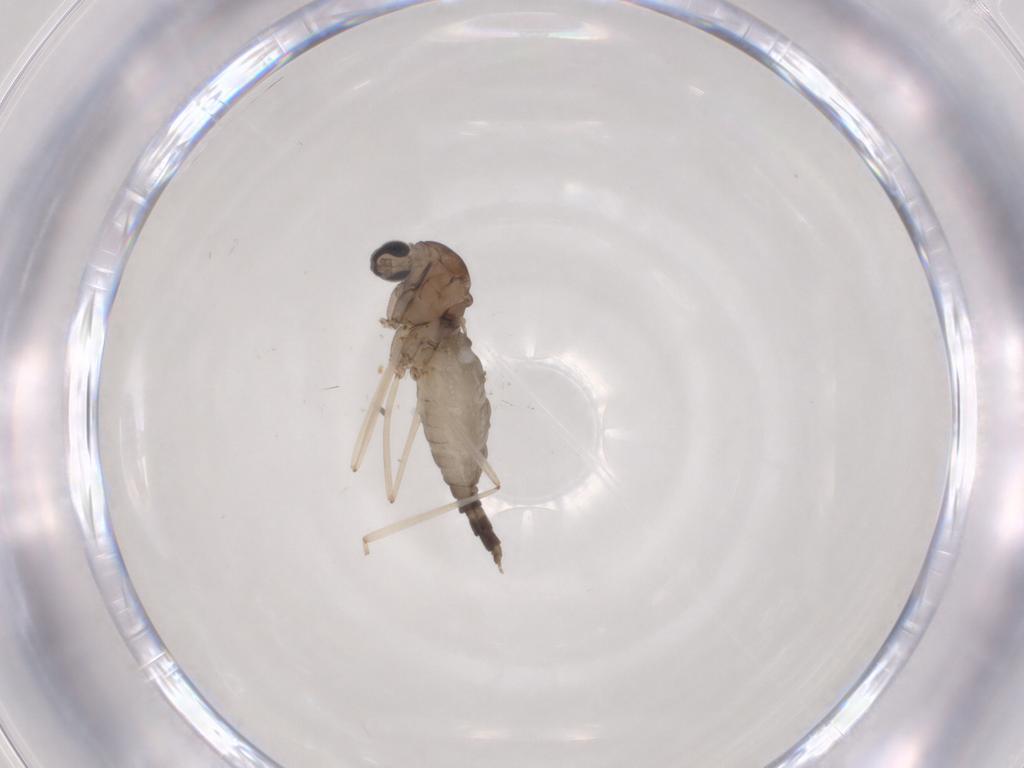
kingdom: Animalia
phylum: Arthropoda
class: Insecta
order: Diptera
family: Cecidomyiidae
